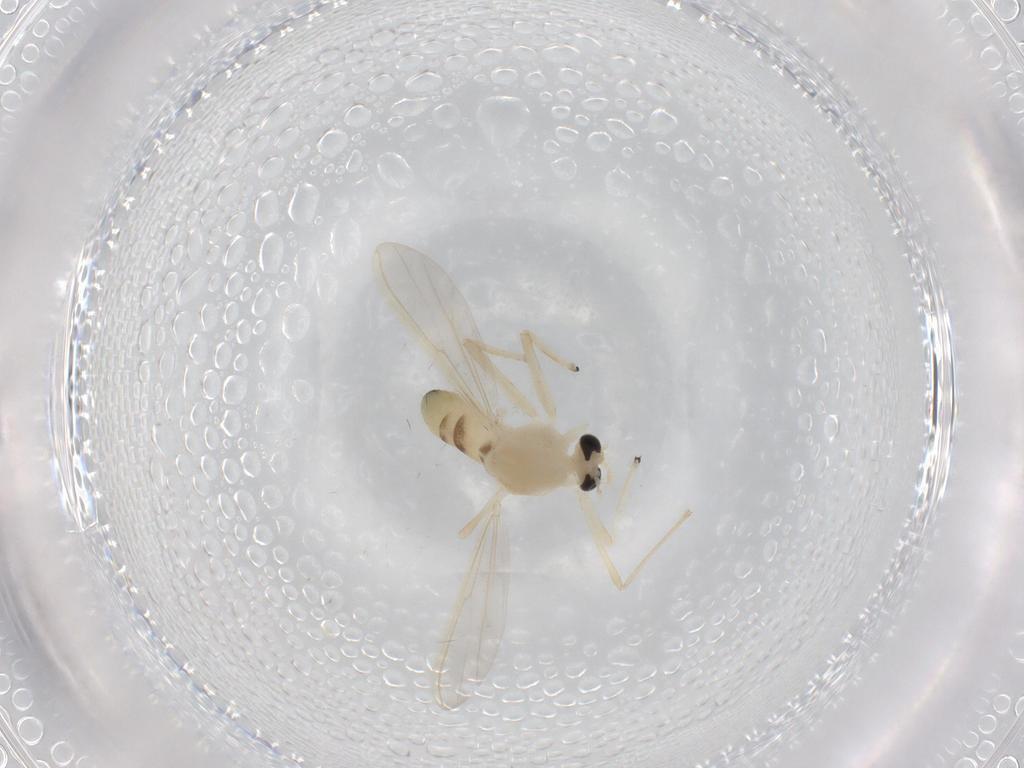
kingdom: Animalia
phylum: Arthropoda
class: Insecta
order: Diptera
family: Chironomidae
